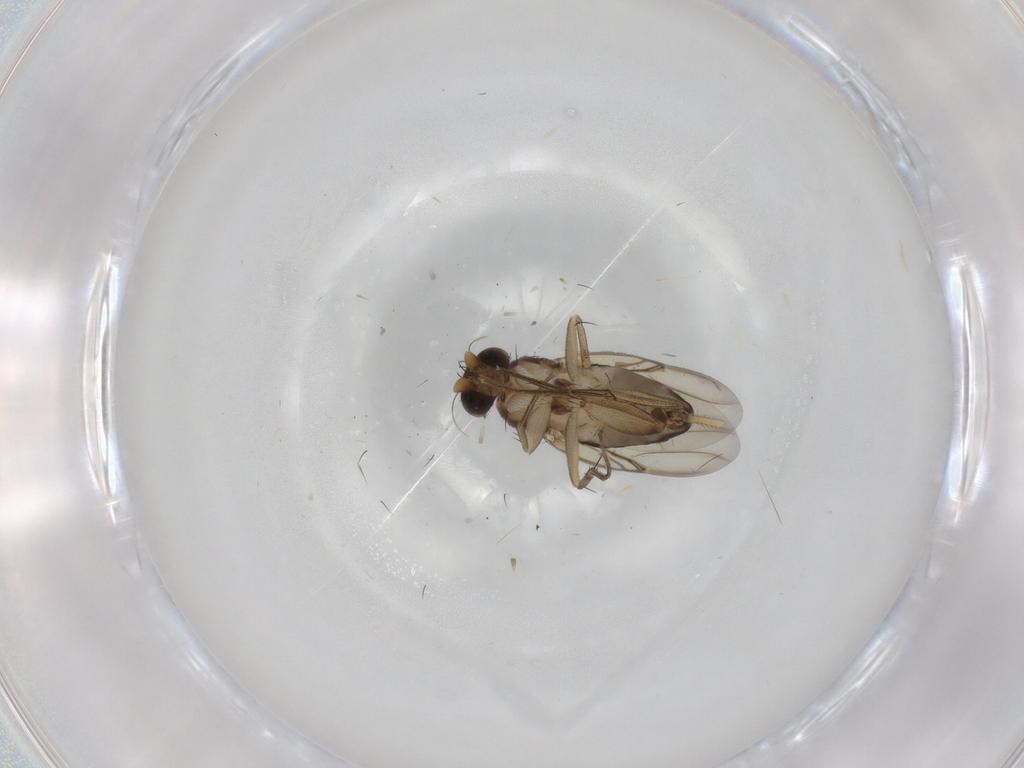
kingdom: Animalia
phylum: Arthropoda
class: Insecta
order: Diptera
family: Phoridae
